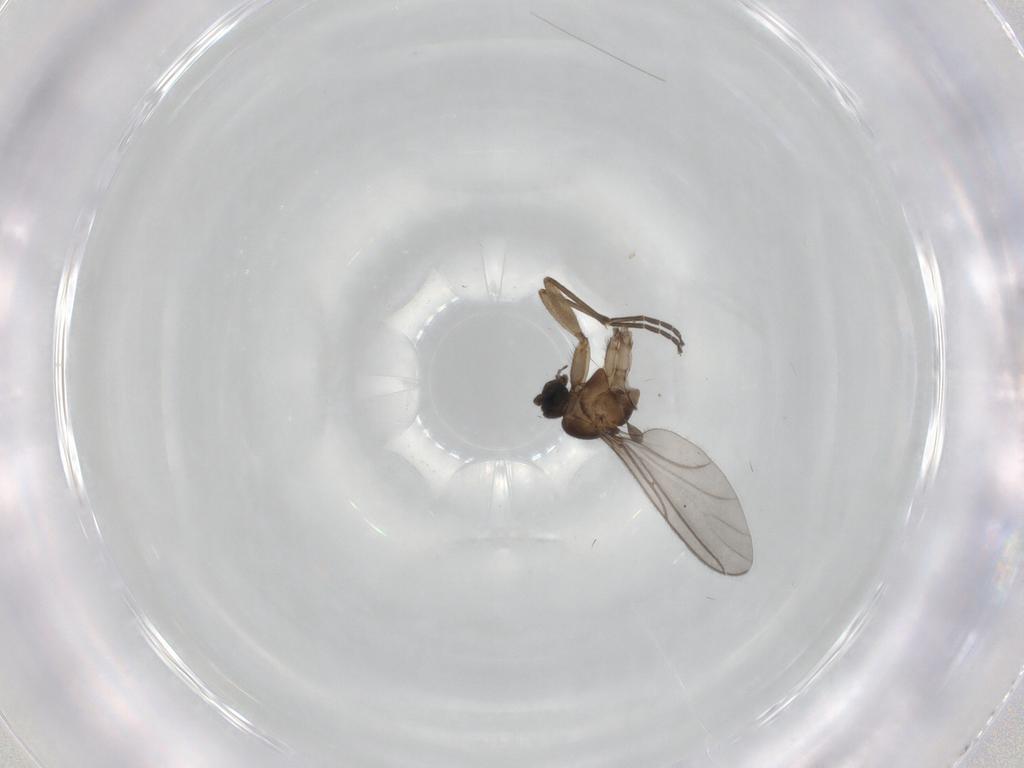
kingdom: Animalia
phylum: Arthropoda
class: Insecta
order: Diptera
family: Sciaridae
